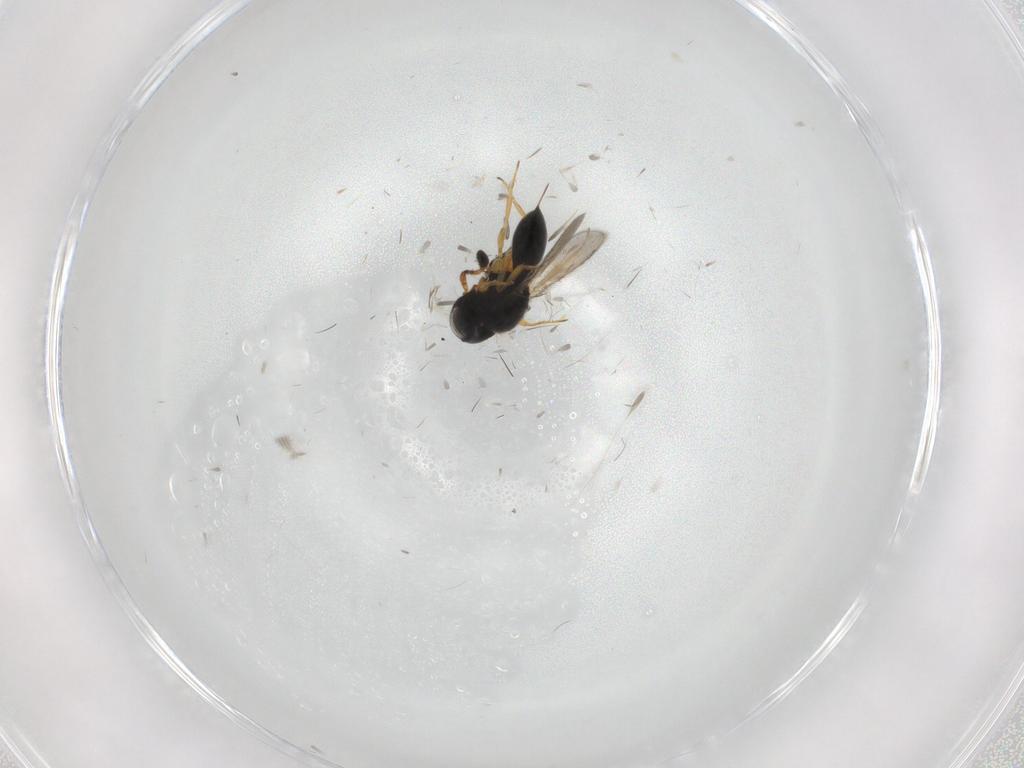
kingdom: Animalia
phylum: Arthropoda
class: Insecta
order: Hymenoptera
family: Scelionidae
